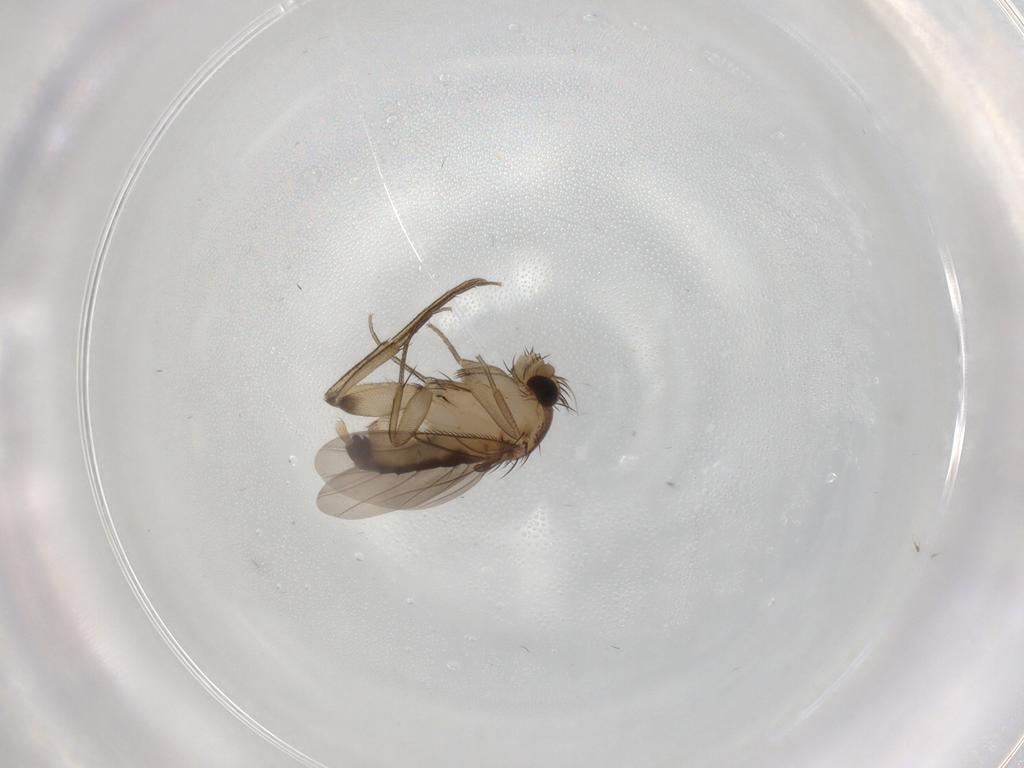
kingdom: Animalia
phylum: Arthropoda
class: Insecta
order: Diptera
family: Phoridae
